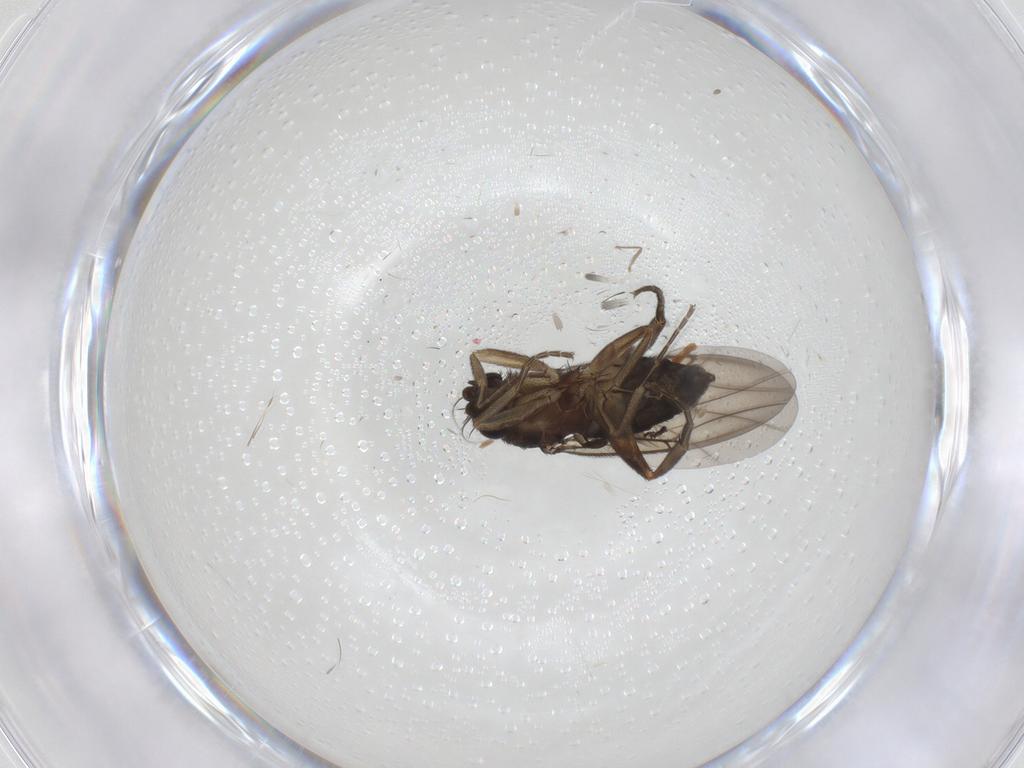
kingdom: Animalia
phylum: Arthropoda
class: Insecta
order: Diptera
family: Phoridae
